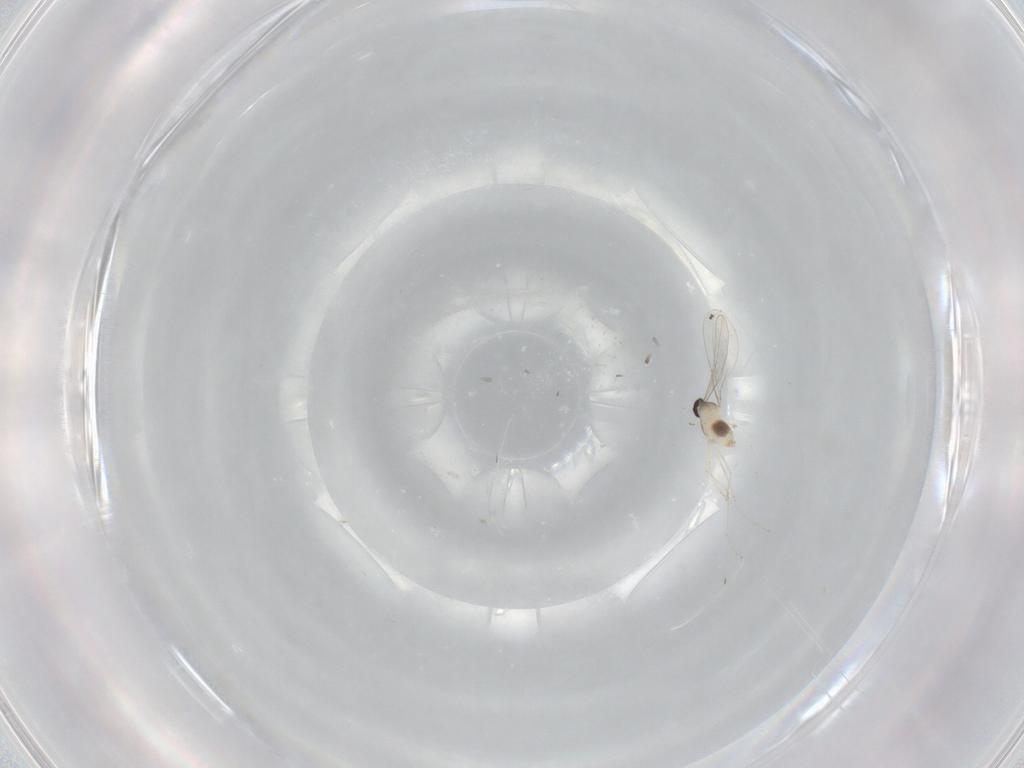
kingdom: Animalia
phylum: Arthropoda
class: Insecta
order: Diptera
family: Cecidomyiidae
